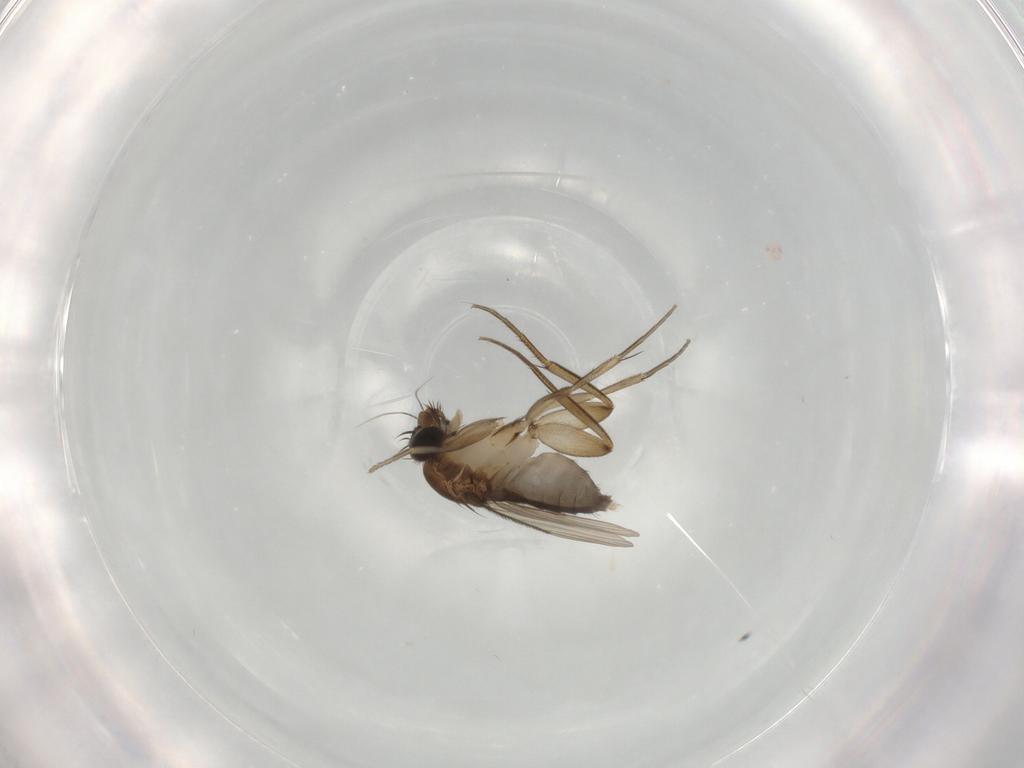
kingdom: Animalia
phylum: Arthropoda
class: Insecta
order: Diptera
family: Phoridae
